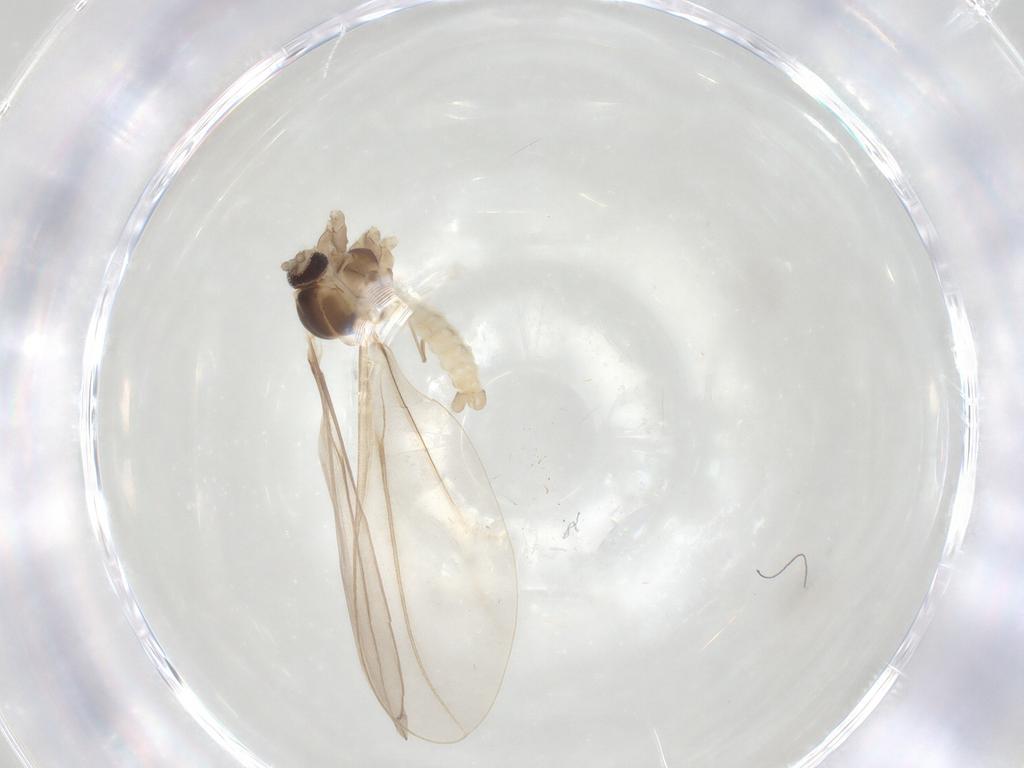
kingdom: Animalia
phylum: Arthropoda
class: Insecta
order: Diptera
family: Cecidomyiidae
